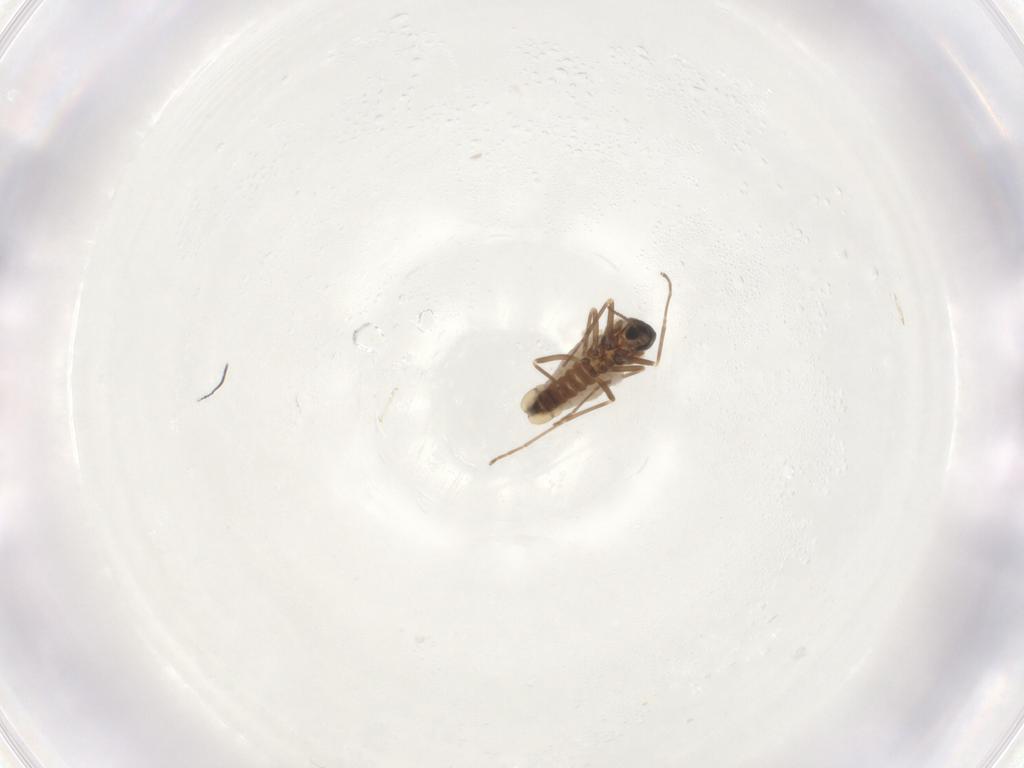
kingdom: Animalia
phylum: Arthropoda
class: Insecta
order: Diptera
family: Cecidomyiidae
